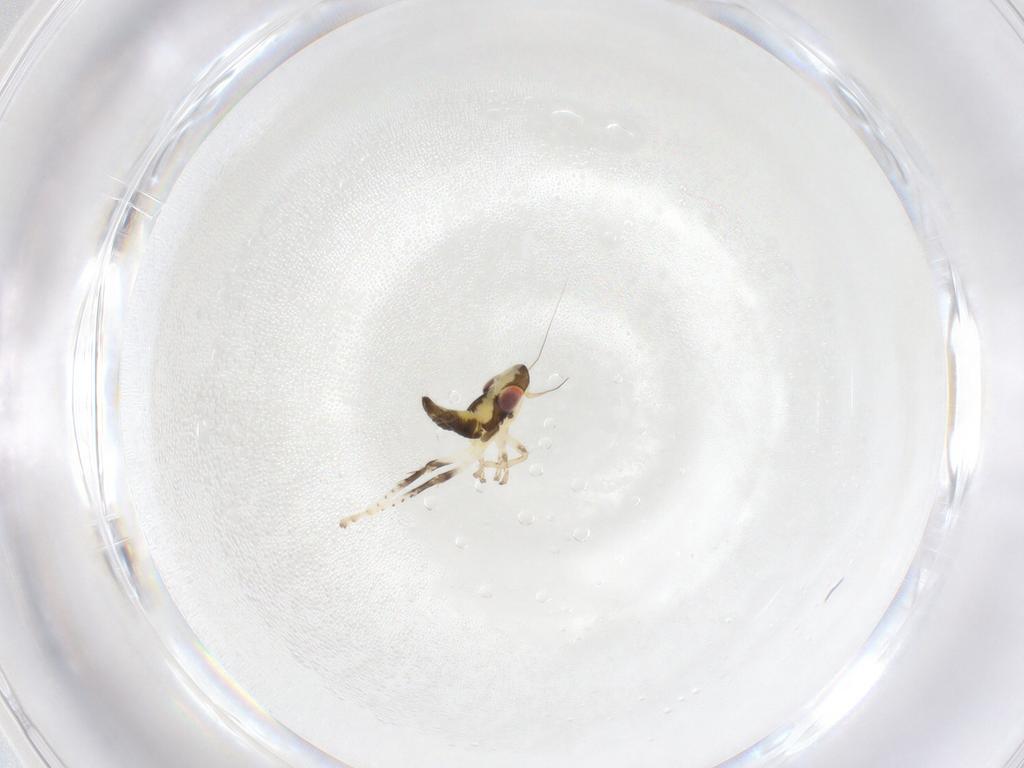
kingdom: Animalia
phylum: Arthropoda
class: Insecta
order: Hemiptera
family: Cicadellidae
